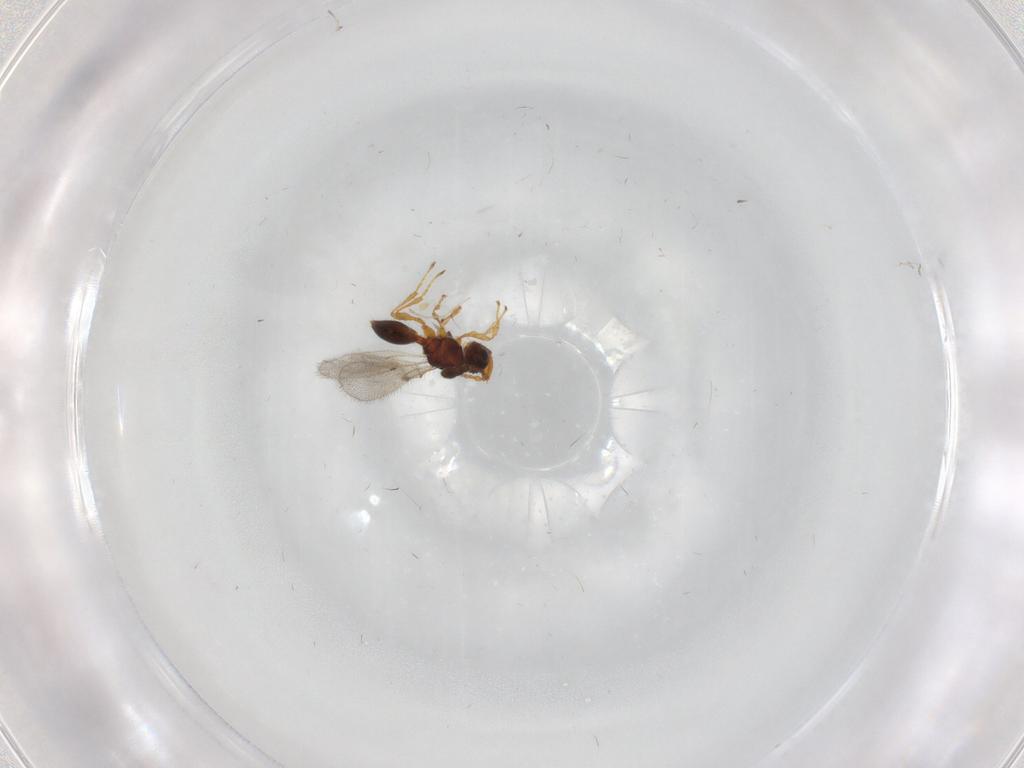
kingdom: Animalia
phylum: Arthropoda
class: Insecta
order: Hymenoptera
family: Diapriidae
